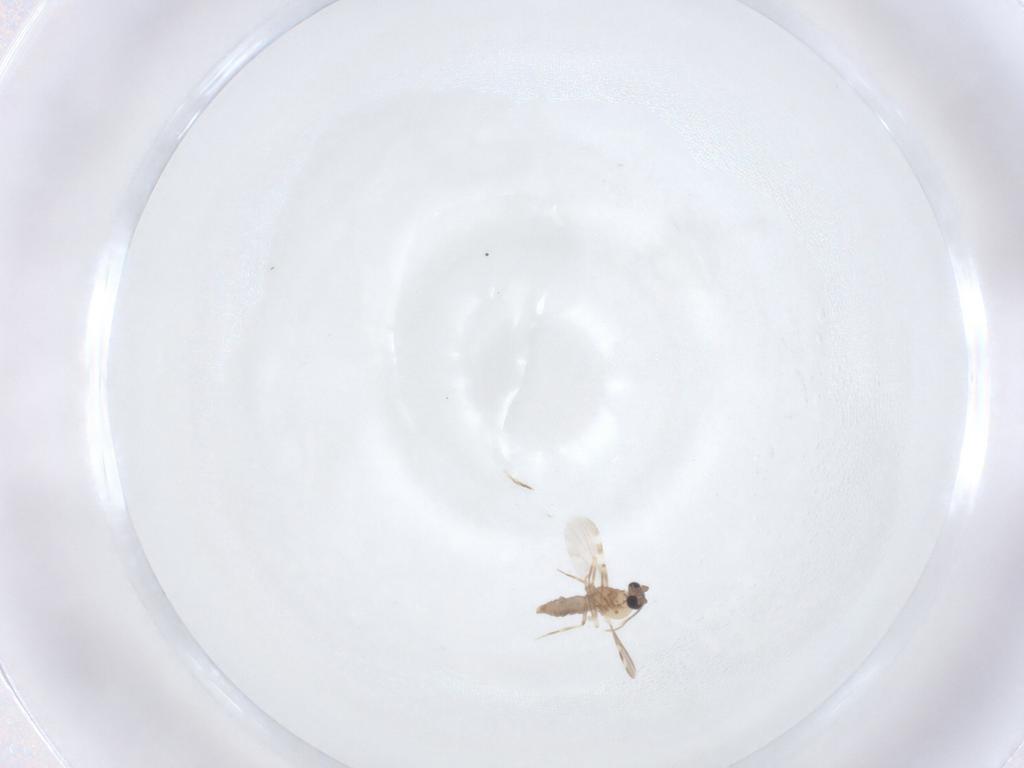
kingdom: Animalia
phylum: Arthropoda
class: Insecta
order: Diptera
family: Ceratopogonidae
